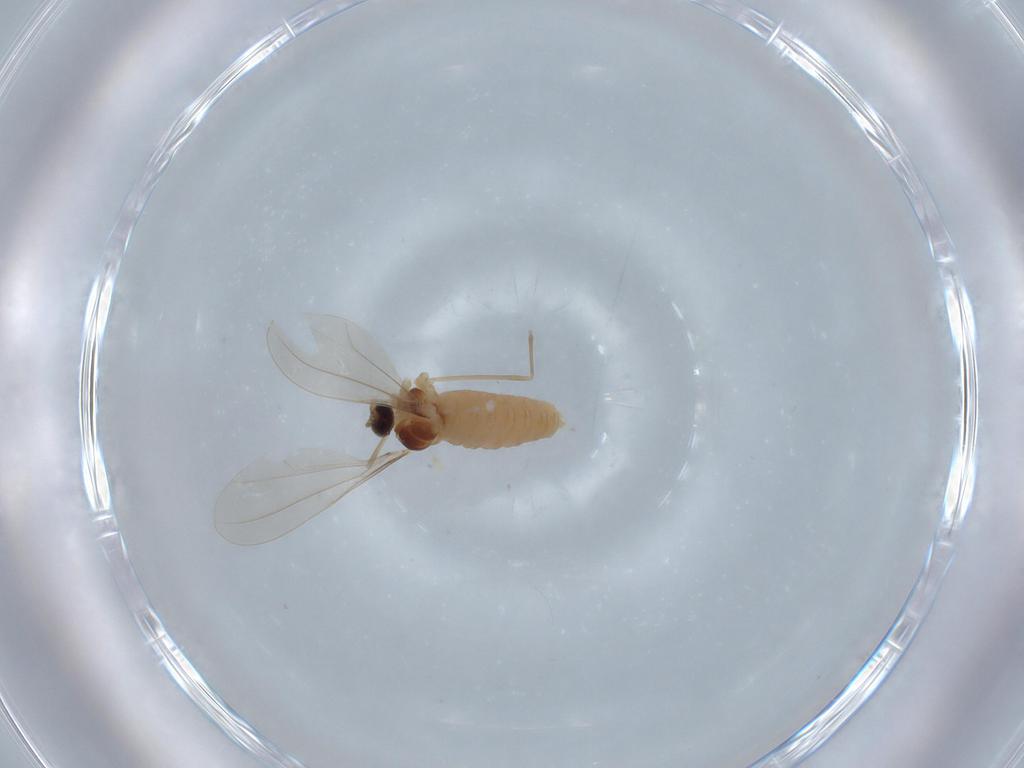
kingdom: Animalia
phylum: Arthropoda
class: Insecta
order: Diptera
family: Cecidomyiidae
